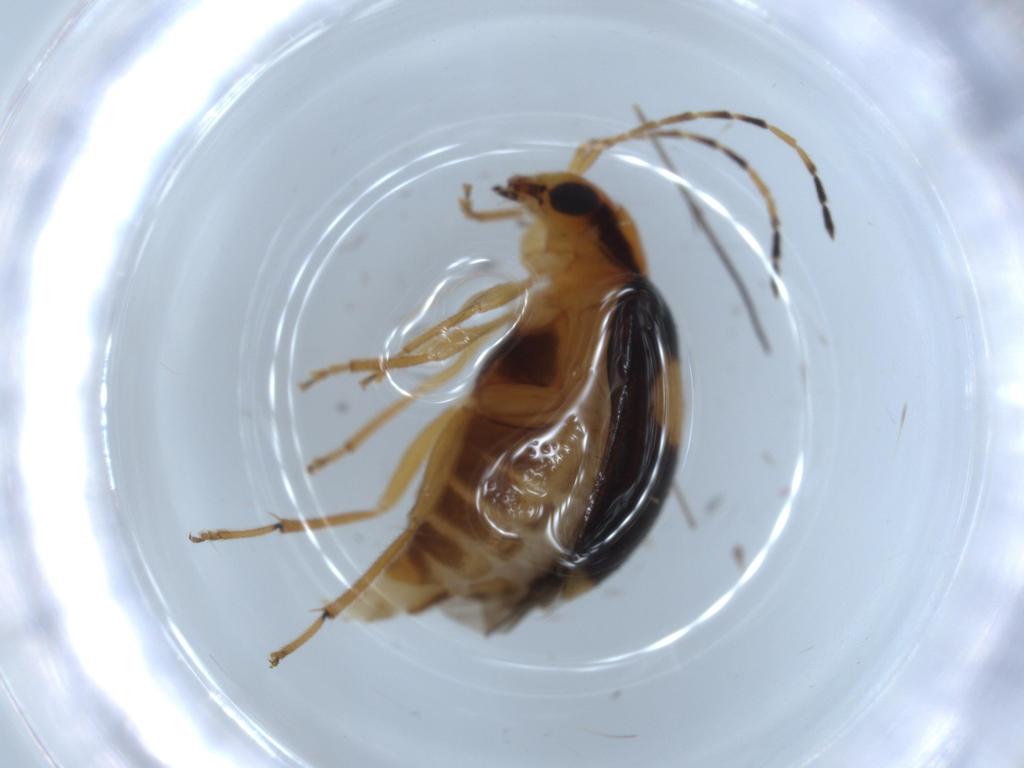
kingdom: Animalia
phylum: Arthropoda
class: Insecta
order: Coleoptera
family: Chrysomelidae
